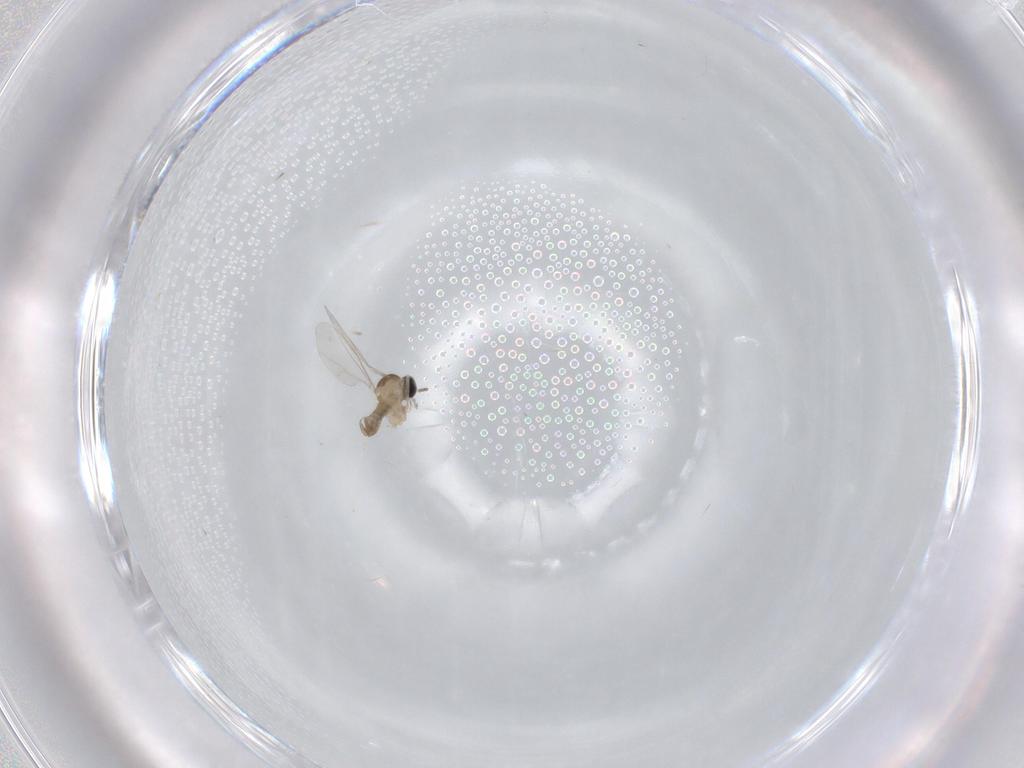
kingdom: Animalia
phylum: Arthropoda
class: Insecta
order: Diptera
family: Cecidomyiidae
